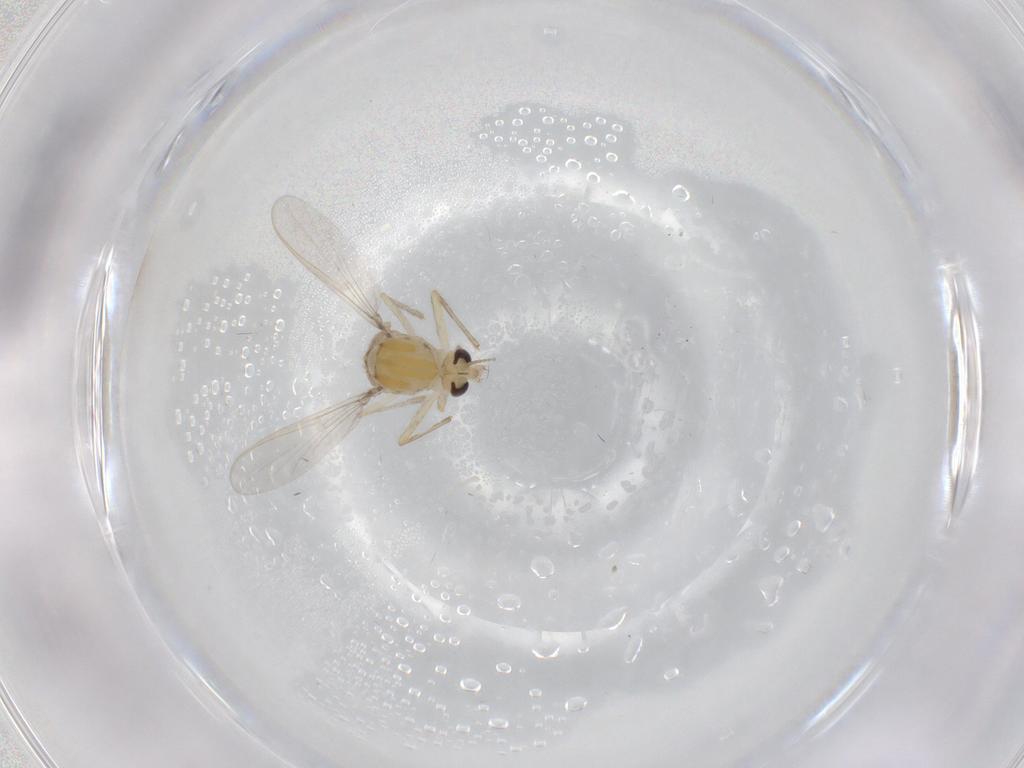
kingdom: Animalia
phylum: Arthropoda
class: Insecta
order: Diptera
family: Chironomidae
